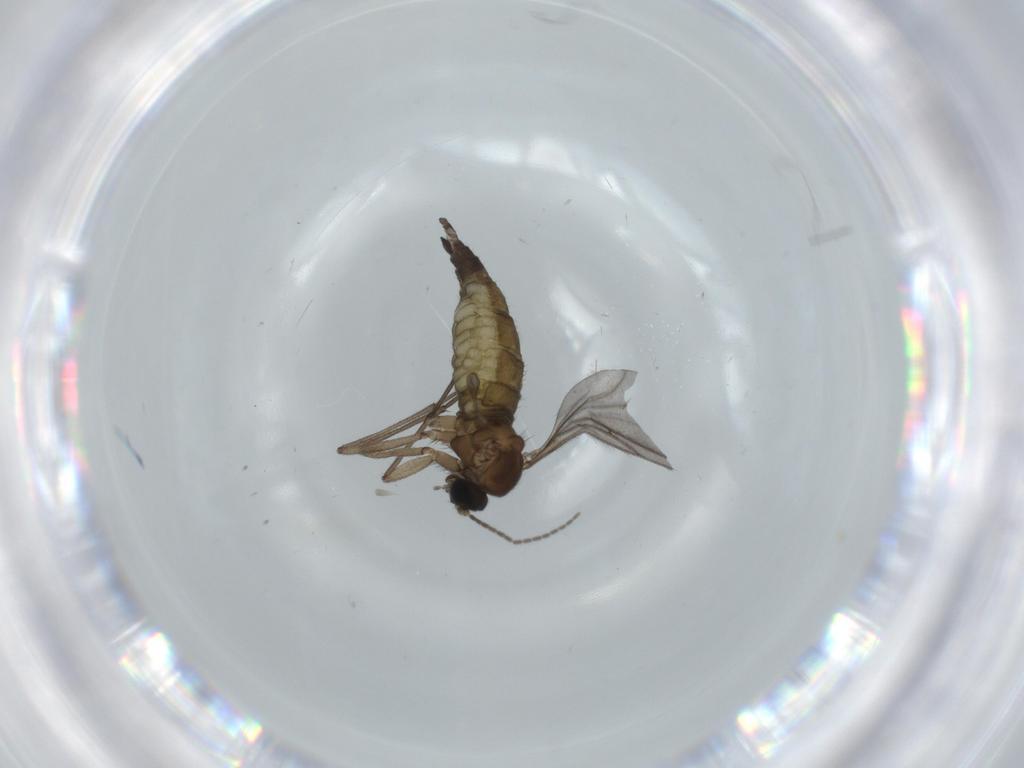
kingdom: Animalia
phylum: Arthropoda
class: Insecta
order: Diptera
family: Sciaridae
